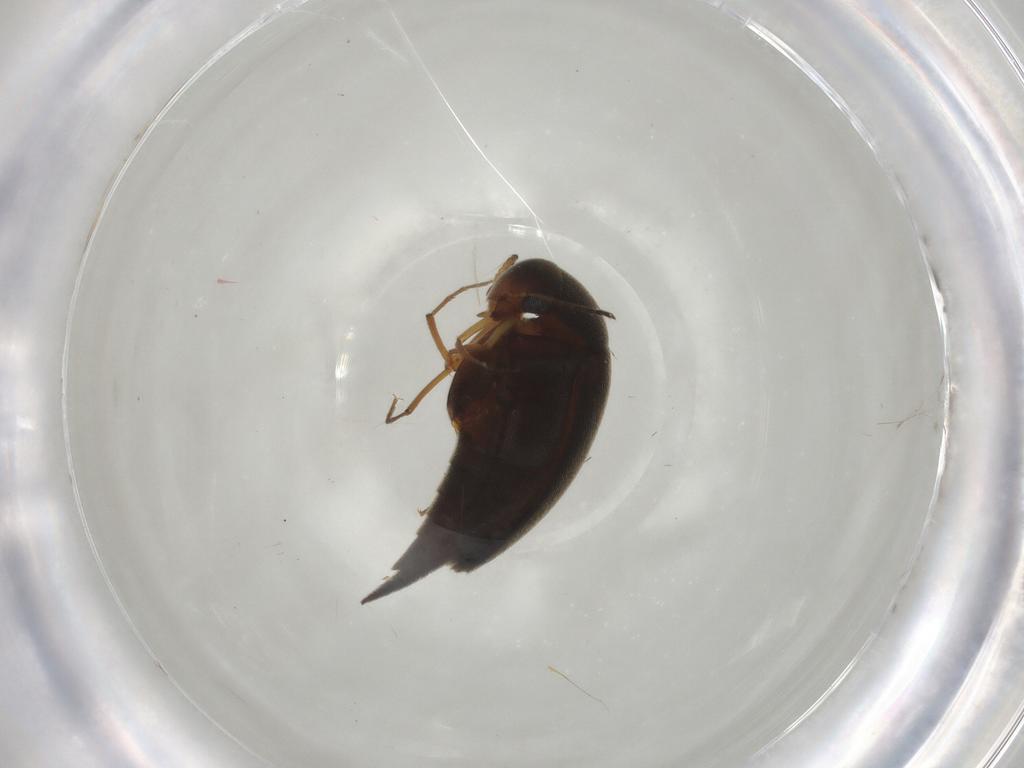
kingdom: Animalia
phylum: Arthropoda
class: Insecta
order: Coleoptera
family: Mordellidae
